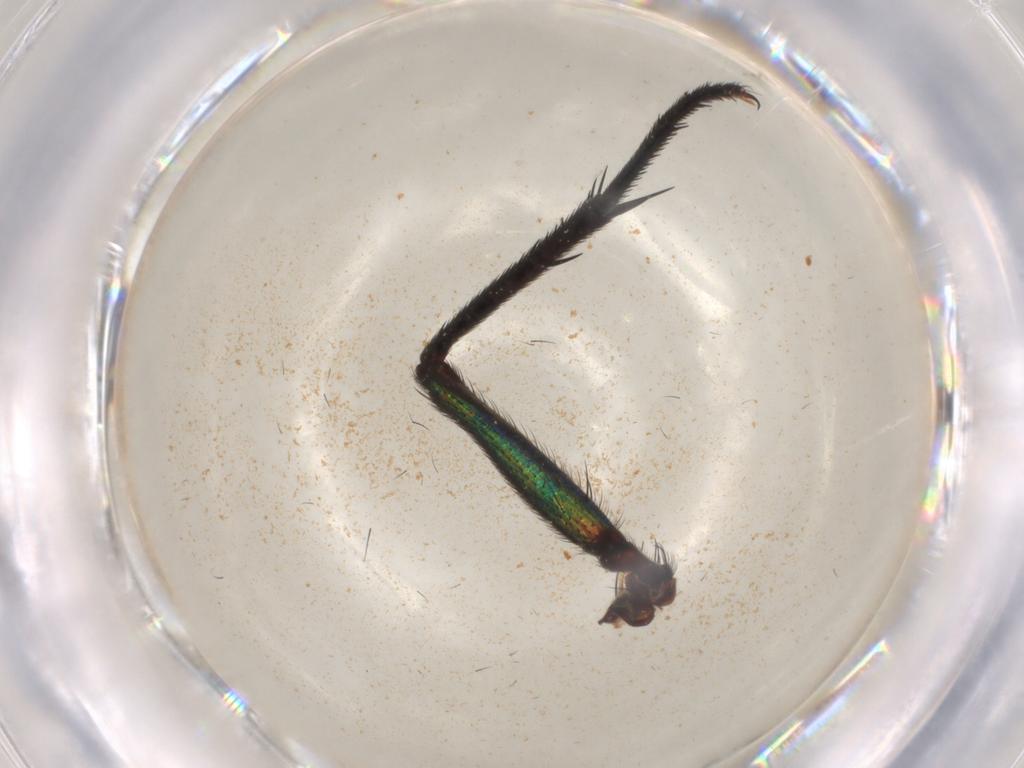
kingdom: Animalia
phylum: Arthropoda
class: Insecta
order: Diptera
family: Muscidae
